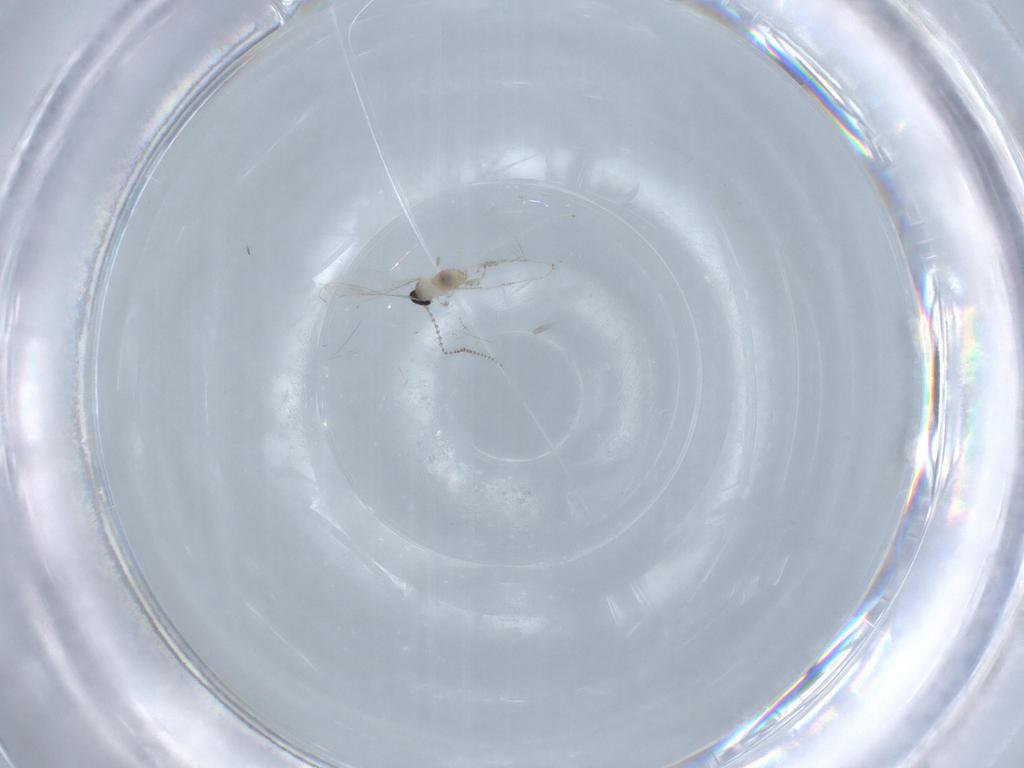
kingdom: Animalia
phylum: Arthropoda
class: Insecta
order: Diptera
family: Cecidomyiidae
